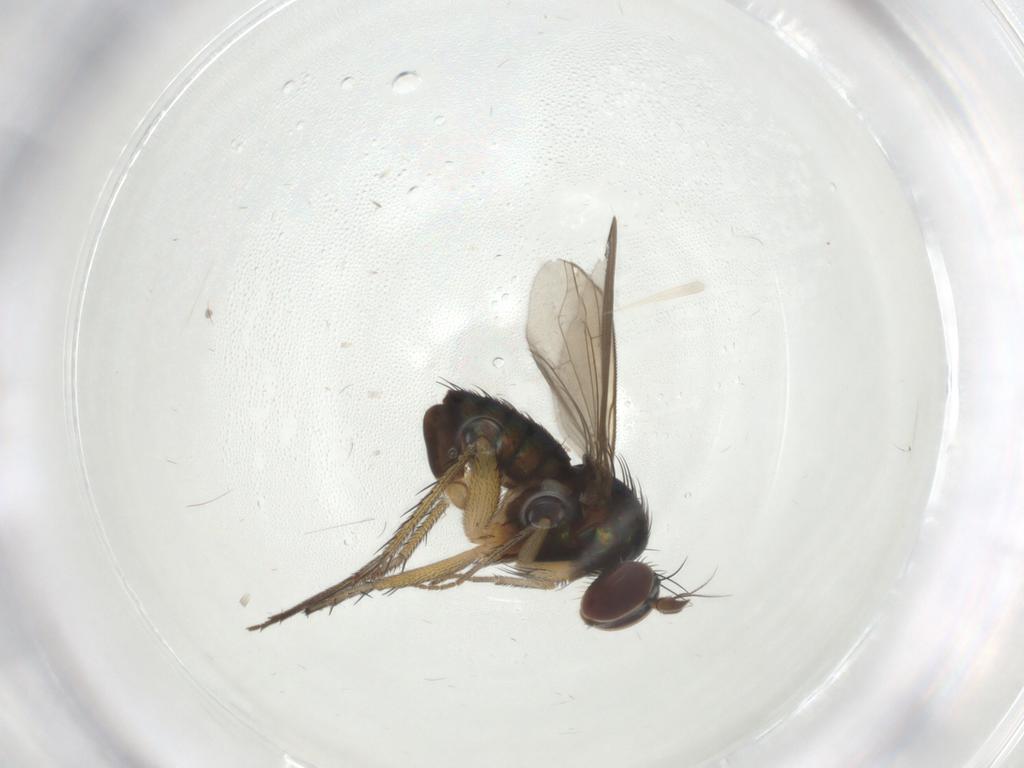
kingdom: Animalia
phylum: Arthropoda
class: Insecta
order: Diptera
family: Dolichopodidae
